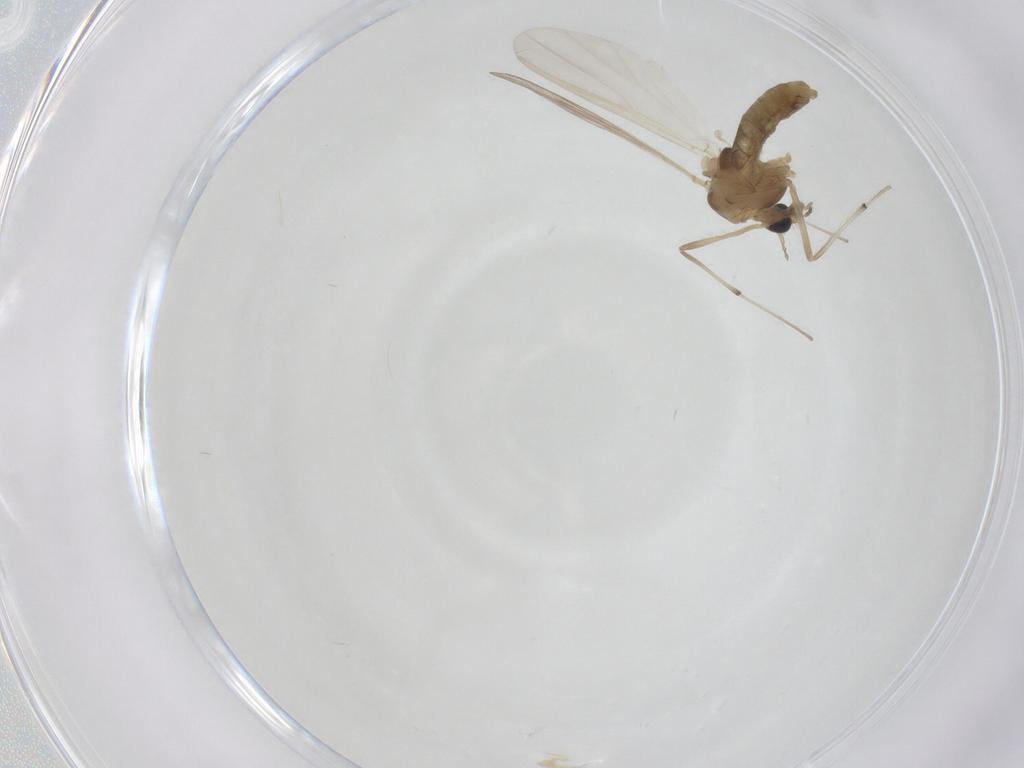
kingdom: Animalia
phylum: Arthropoda
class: Insecta
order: Diptera
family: Chironomidae
